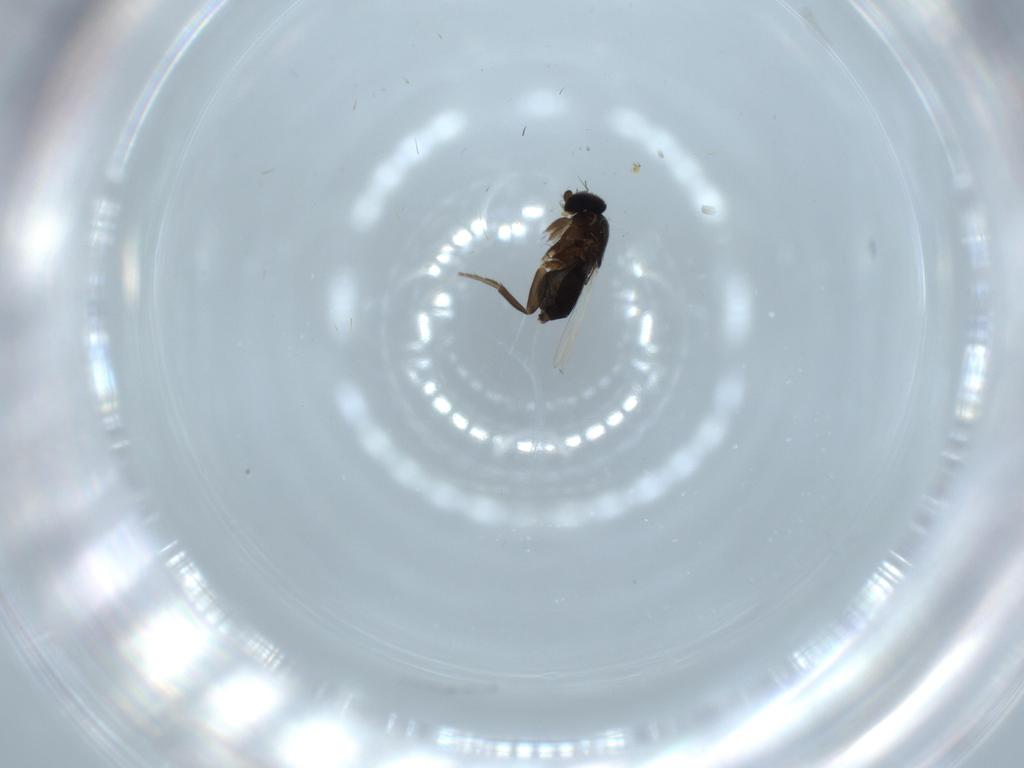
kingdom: Animalia
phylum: Arthropoda
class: Insecta
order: Diptera
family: Phoridae
